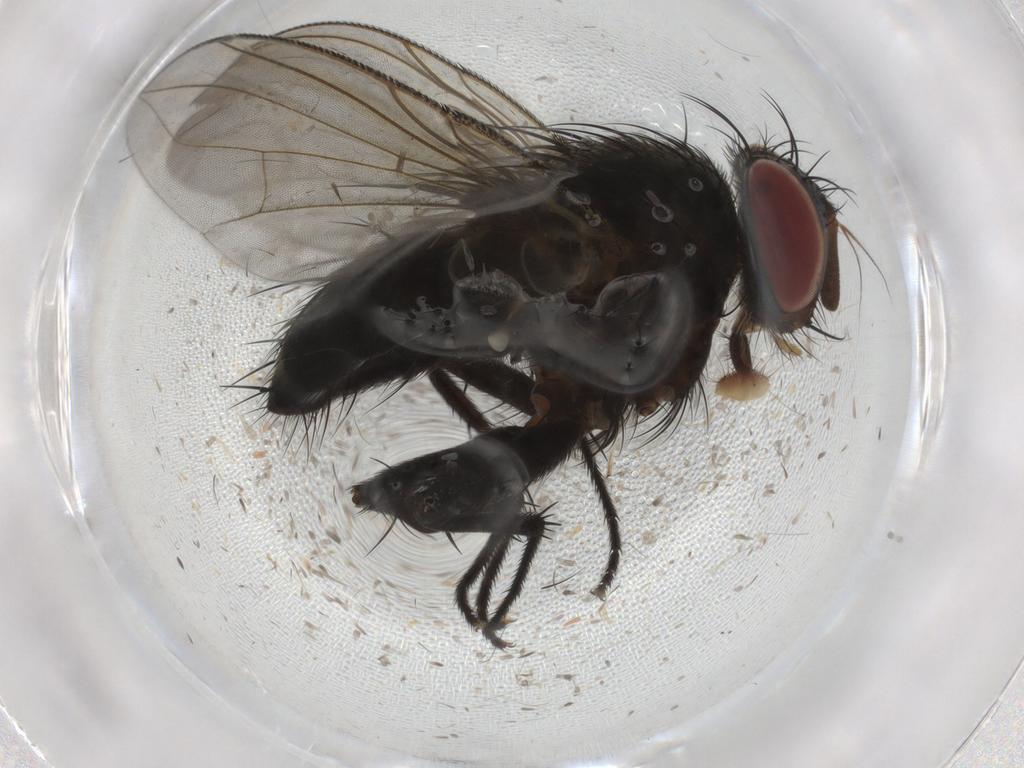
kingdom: Animalia
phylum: Arthropoda
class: Insecta
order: Diptera
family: Tachinidae
